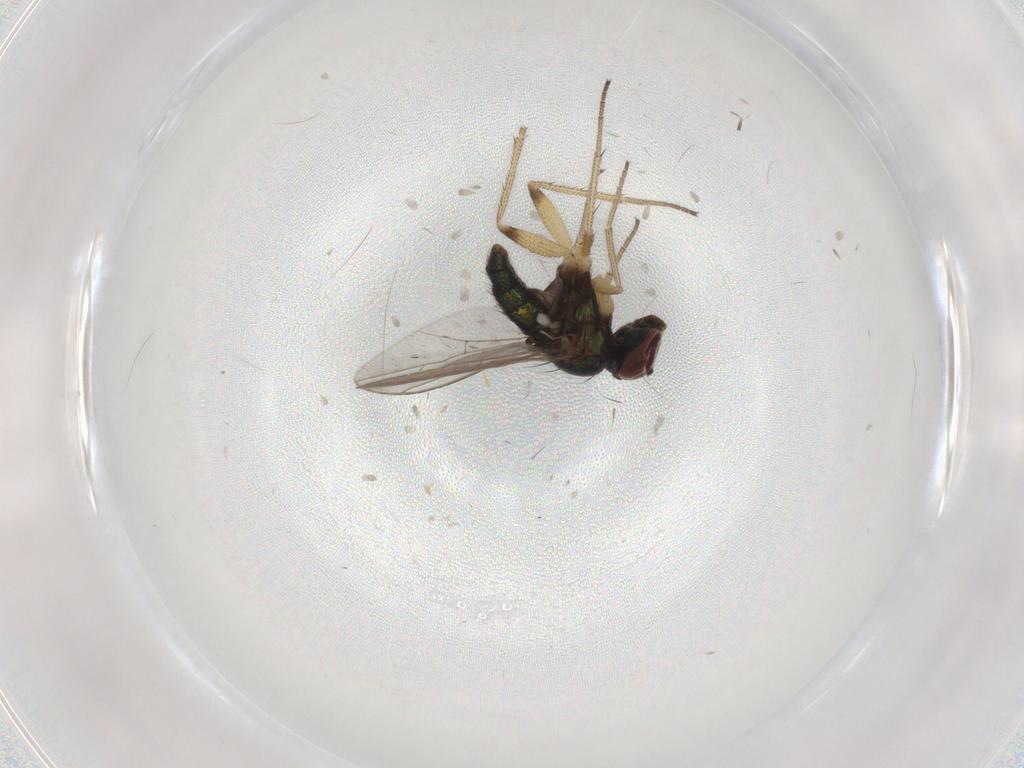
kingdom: Animalia
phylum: Arthropoda
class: Insecta
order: Diptera
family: Chironomidae
